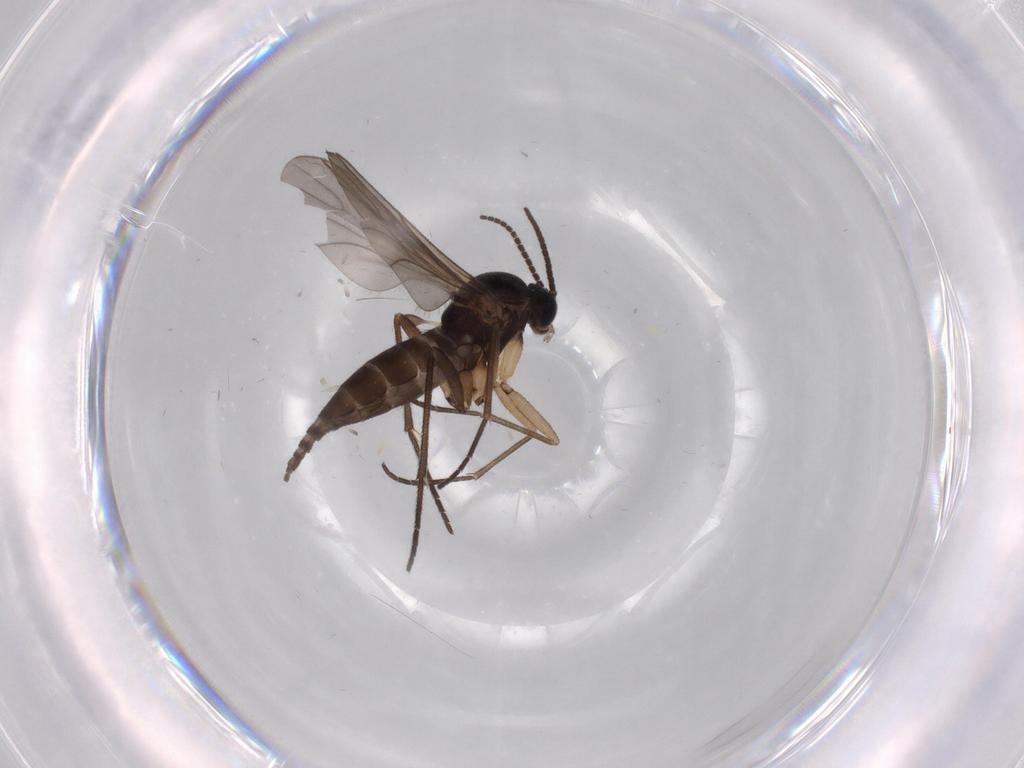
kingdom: Animalia
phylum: Arthropoda
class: Insecta
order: Diptera
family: Sciaridae
